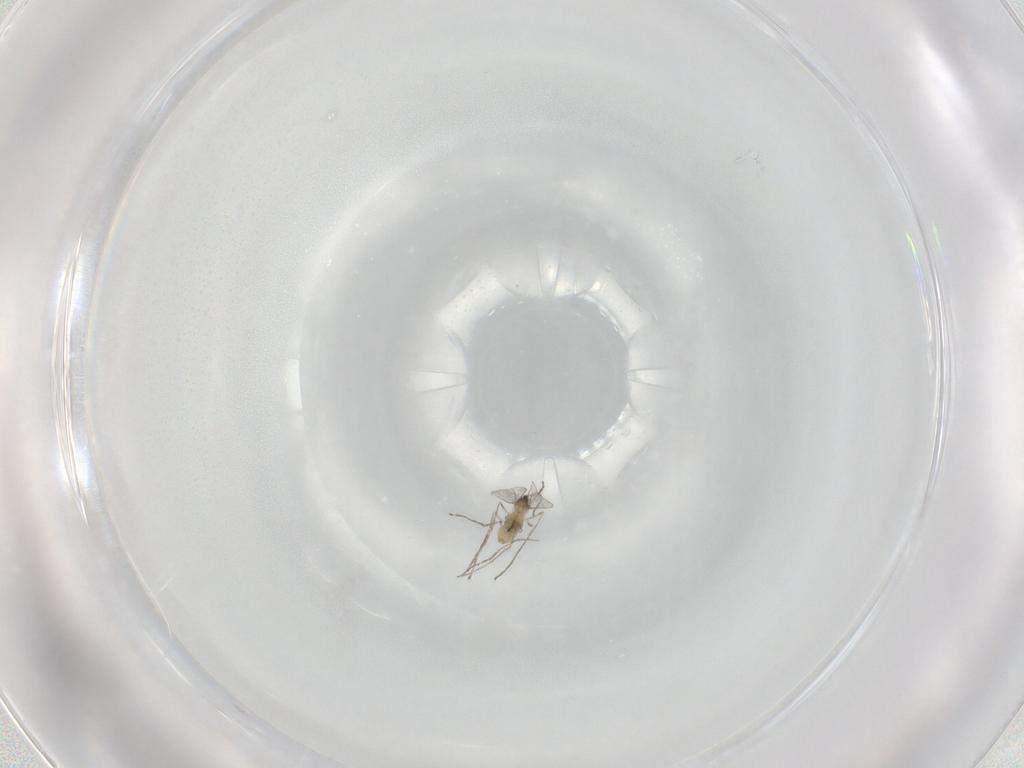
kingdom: Animalia
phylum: Arthropoda
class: Insecta
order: Diptera
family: Cecidomyiidae
